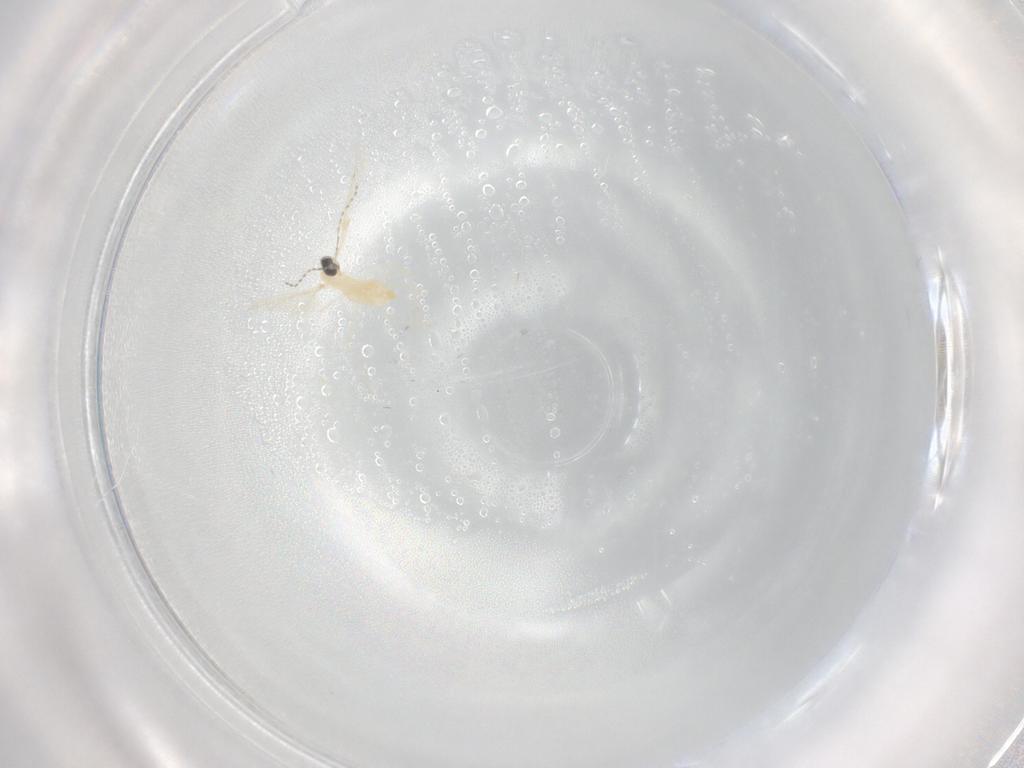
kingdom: Animalia
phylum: Arthropoda
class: Insecta
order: Diptera
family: Cecidomyiidae
